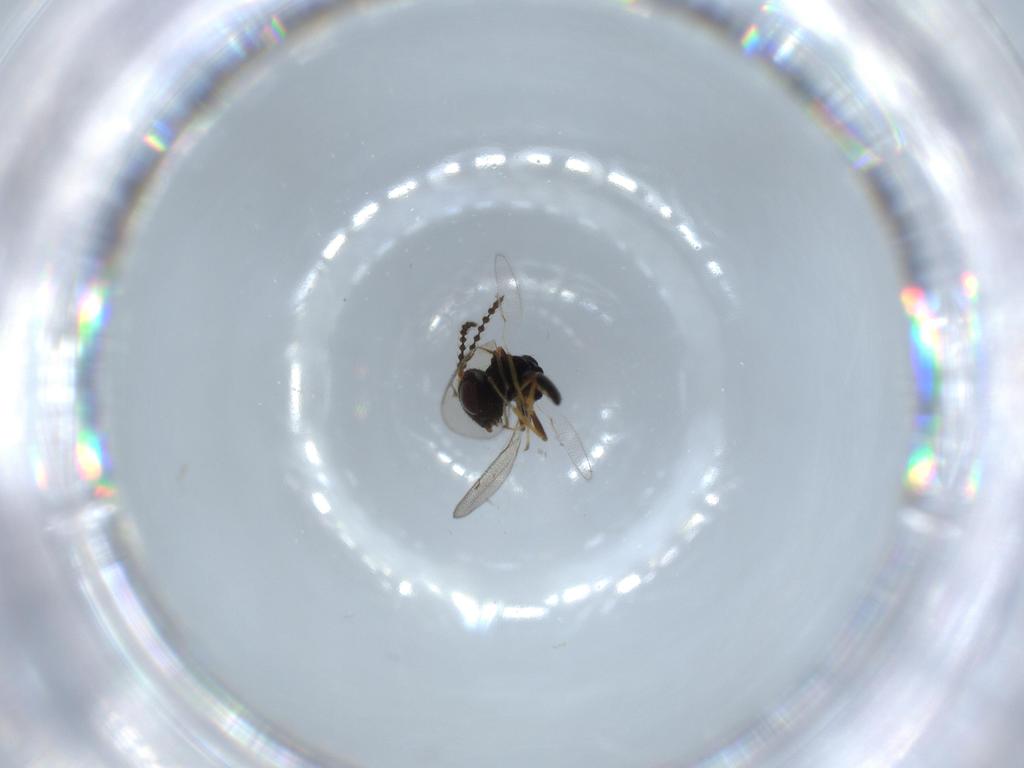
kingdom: Animalia
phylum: Arthropoda
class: Insecta
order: Hymenoptera
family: Pteromalidae
